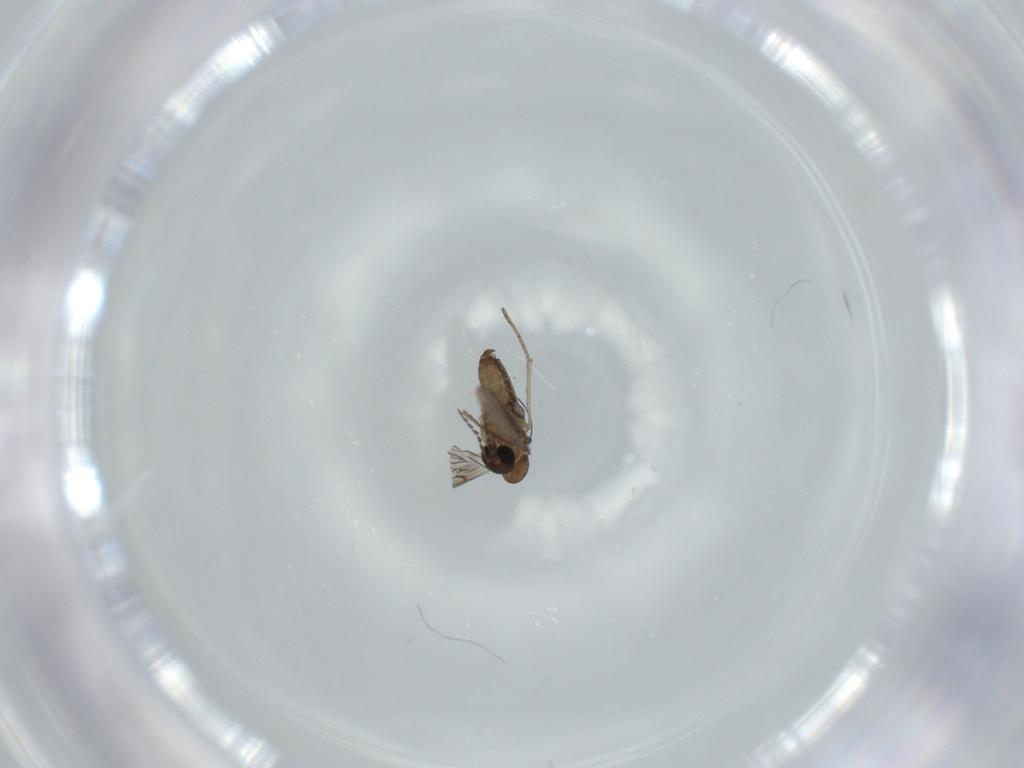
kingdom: Animalia
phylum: Arthropoda
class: Insecta
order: Diptera
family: Psychodidae
